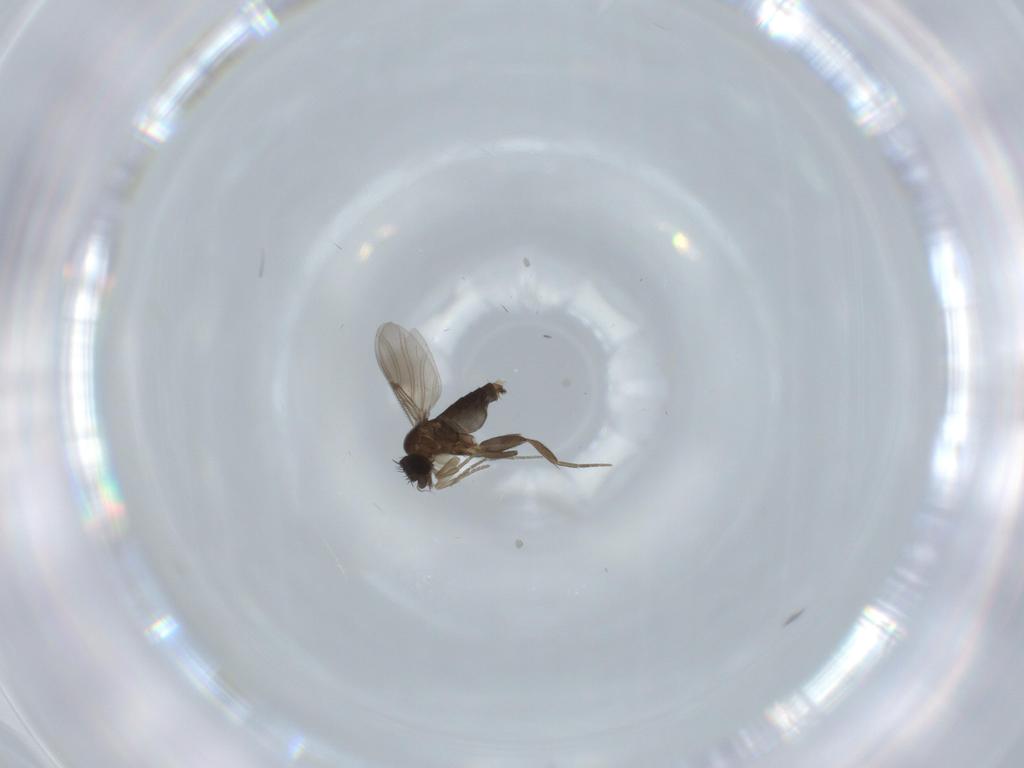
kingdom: Animalia
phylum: Arthropoda
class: Insecta
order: Diptera
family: Phoridae
